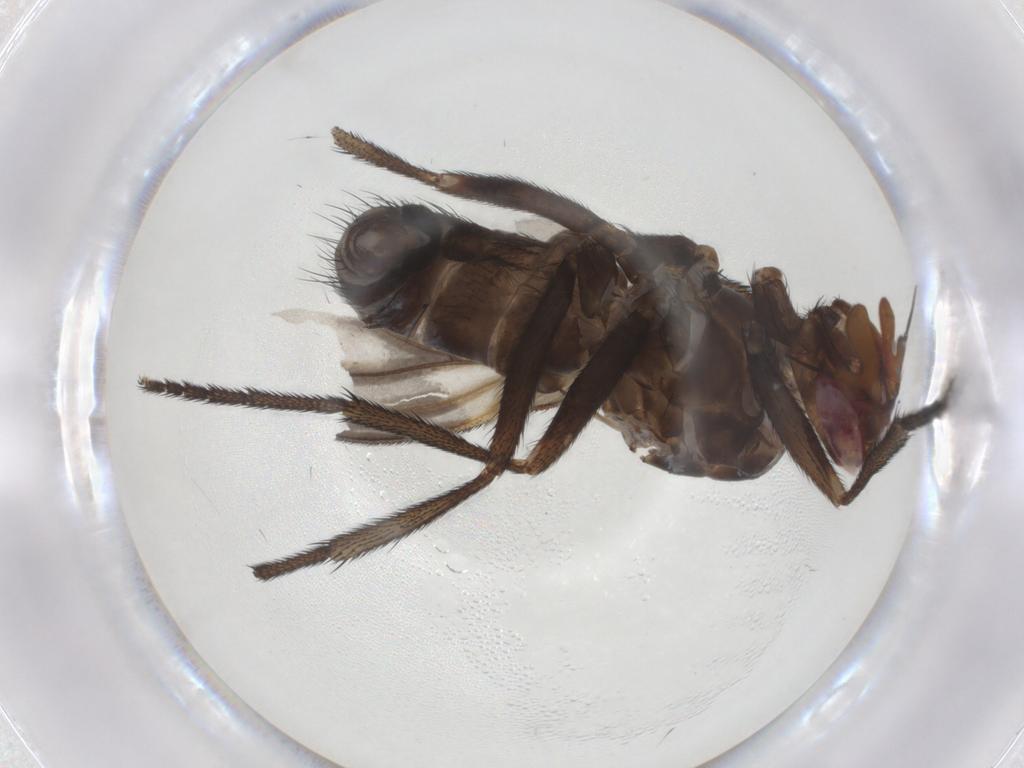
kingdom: Animalia
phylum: Arthropoda
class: Insecta
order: Diptera
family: Calliphoridae
